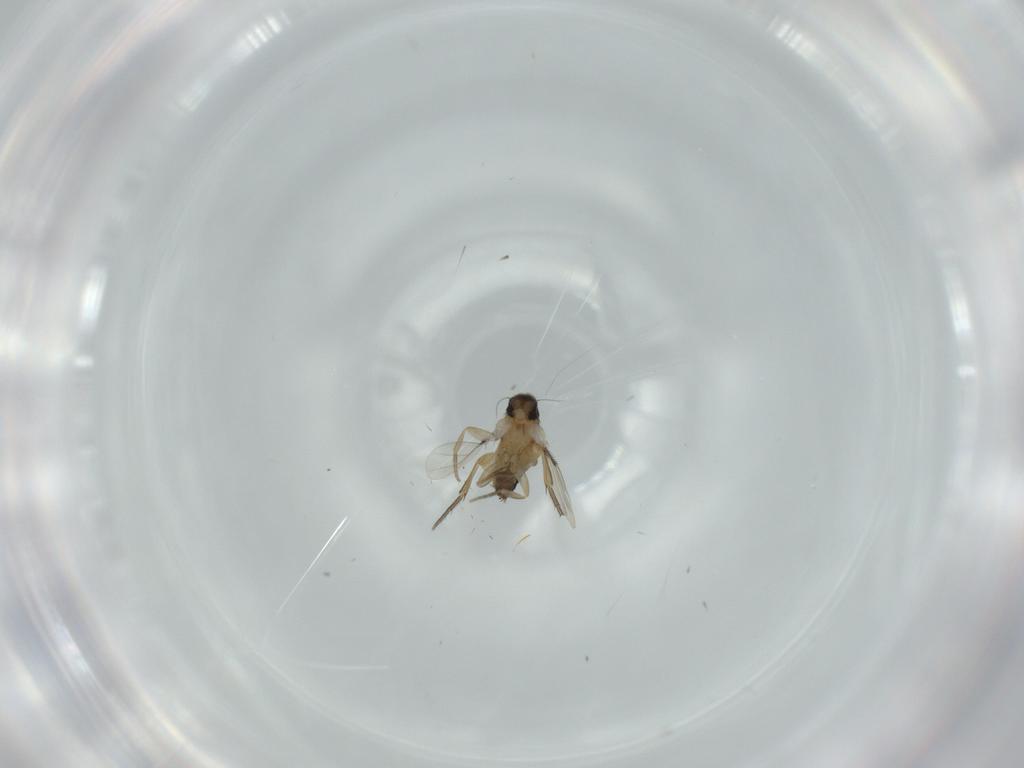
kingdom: Animalia
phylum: Arthropoda
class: Insecta
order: Diptera
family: Phoridae
